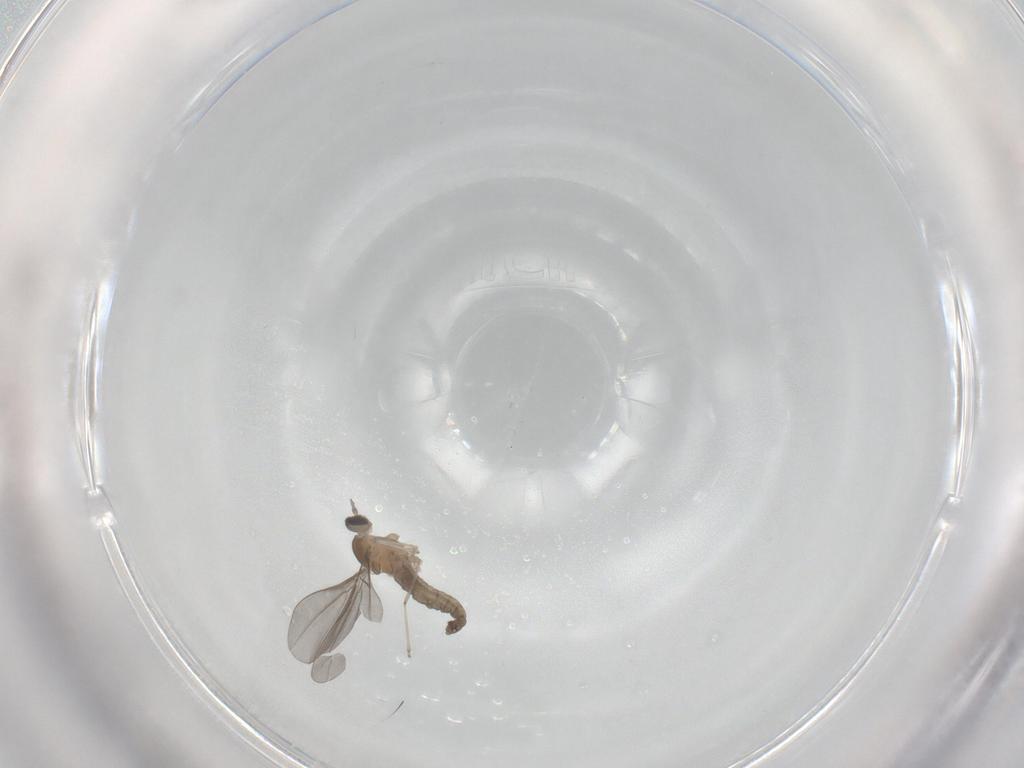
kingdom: Animalia
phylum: Arthropoda
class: Insecta
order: Diptera
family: Cecidomyiidae
